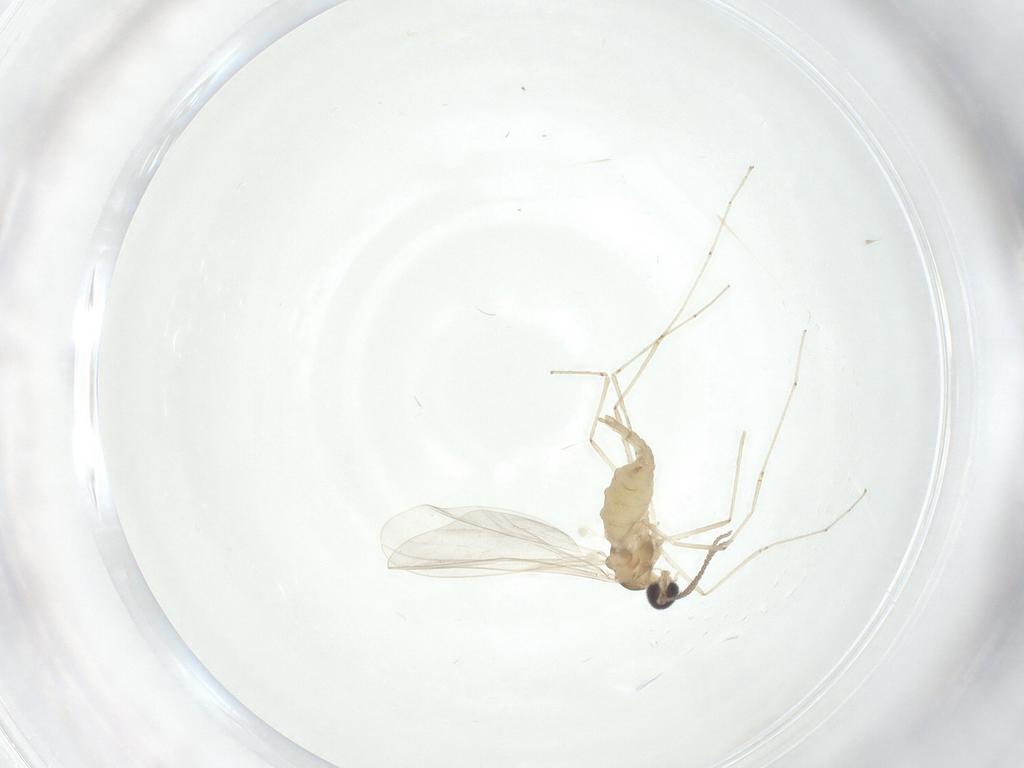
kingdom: Animalia
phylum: Arthropoda
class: Insecta
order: Diptera
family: Cecidomyiidae
